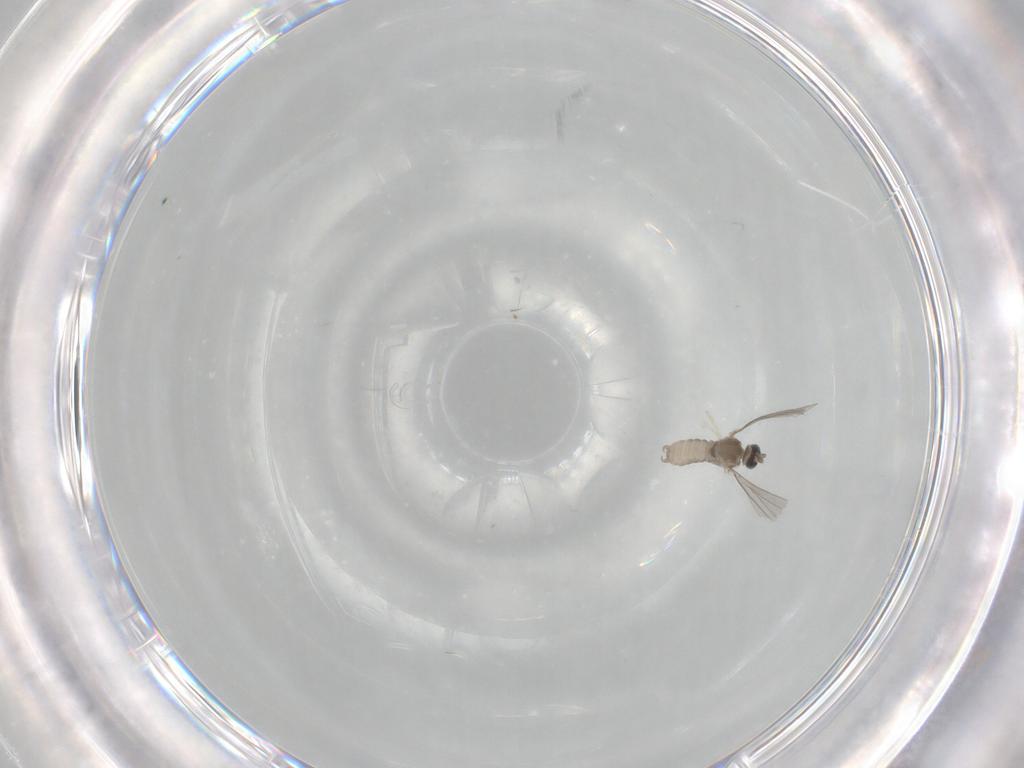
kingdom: Animalia
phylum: Arthropoda
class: Insecta
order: Diptera
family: Phoridae
